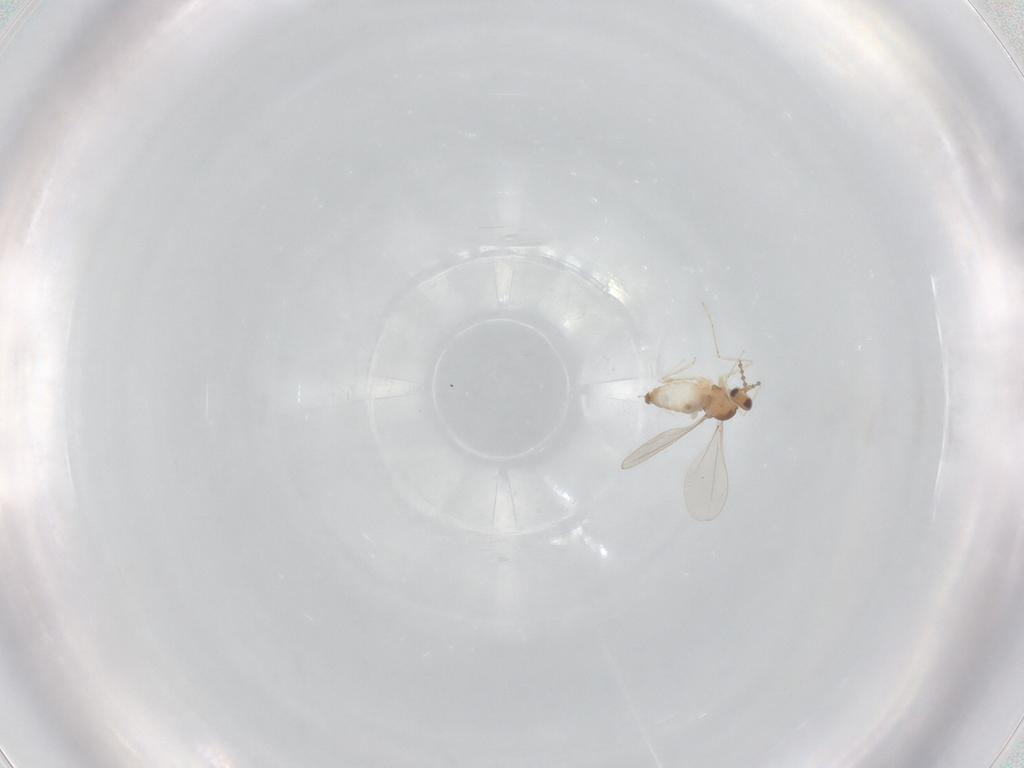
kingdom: Animalia
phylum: Arthropoda
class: Insecta
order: Diptera
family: Cecidomyiidae
